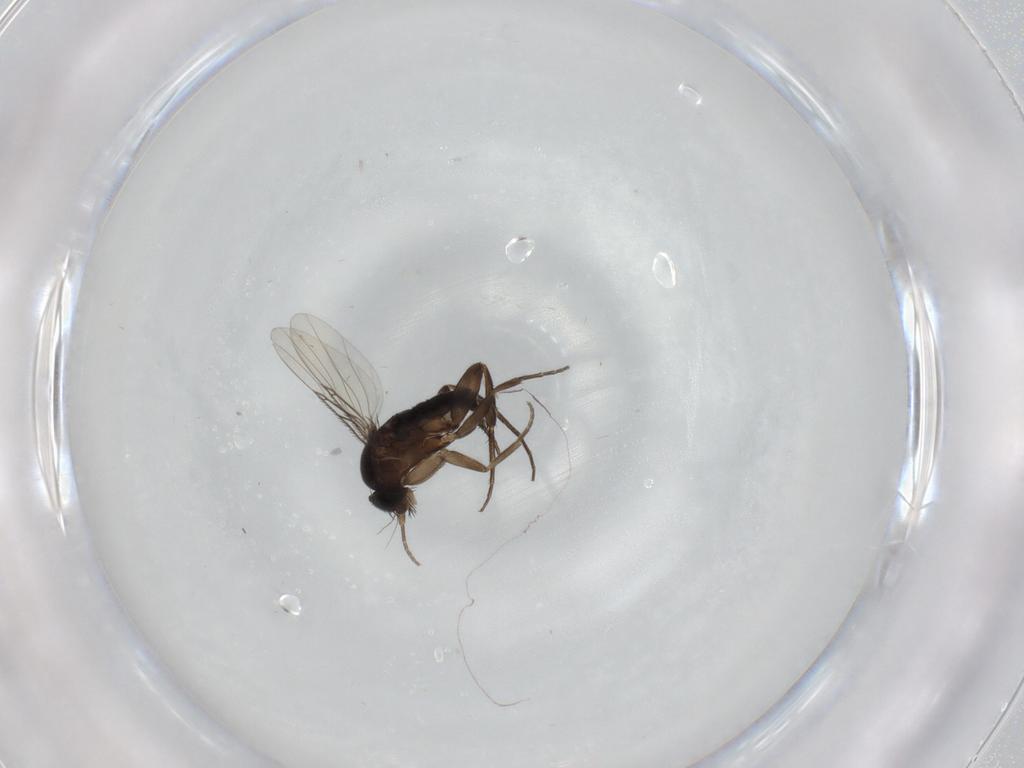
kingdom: Animalia
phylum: Arthropoda
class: Insecta
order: Diptera
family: Phoridae
